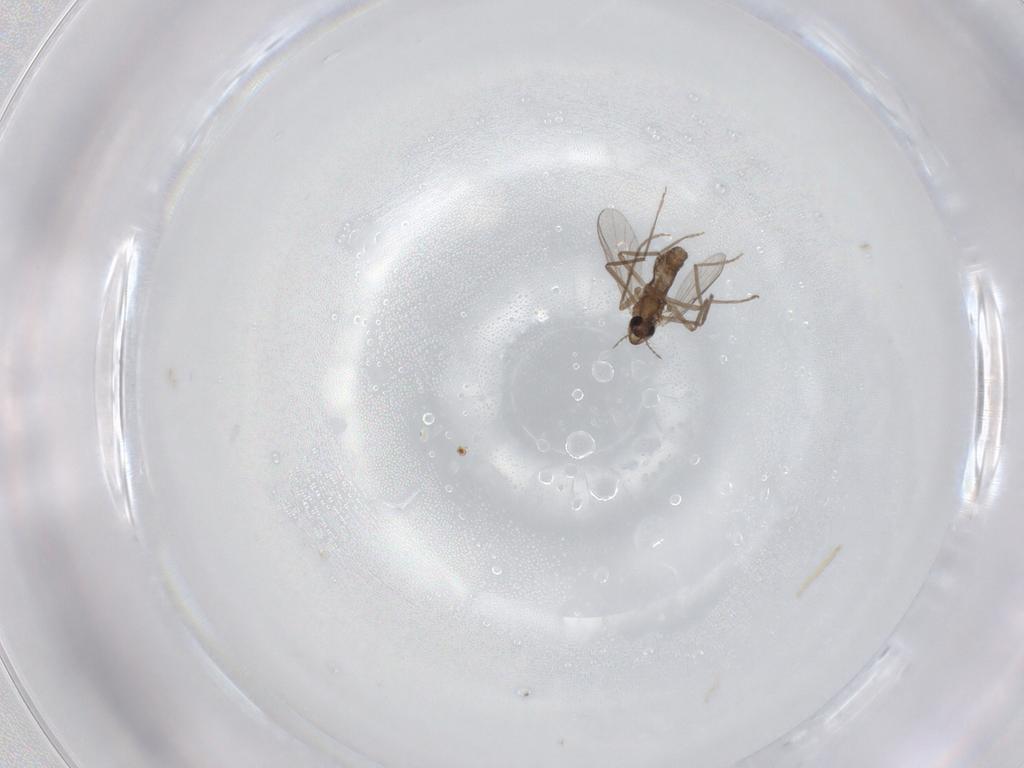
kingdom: Animalia
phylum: Arthropoda
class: Insecta
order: Diptera
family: Chironomidae
